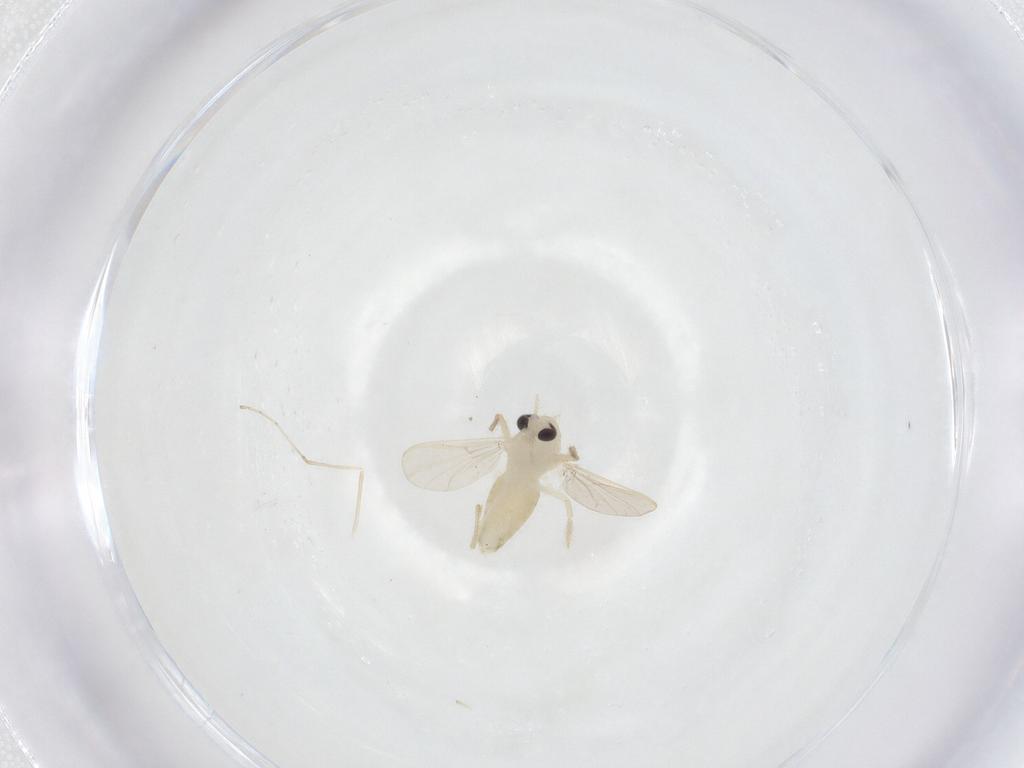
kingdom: Animalia
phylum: Arthropoda
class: Insecta
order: Diptera
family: Culicidae
